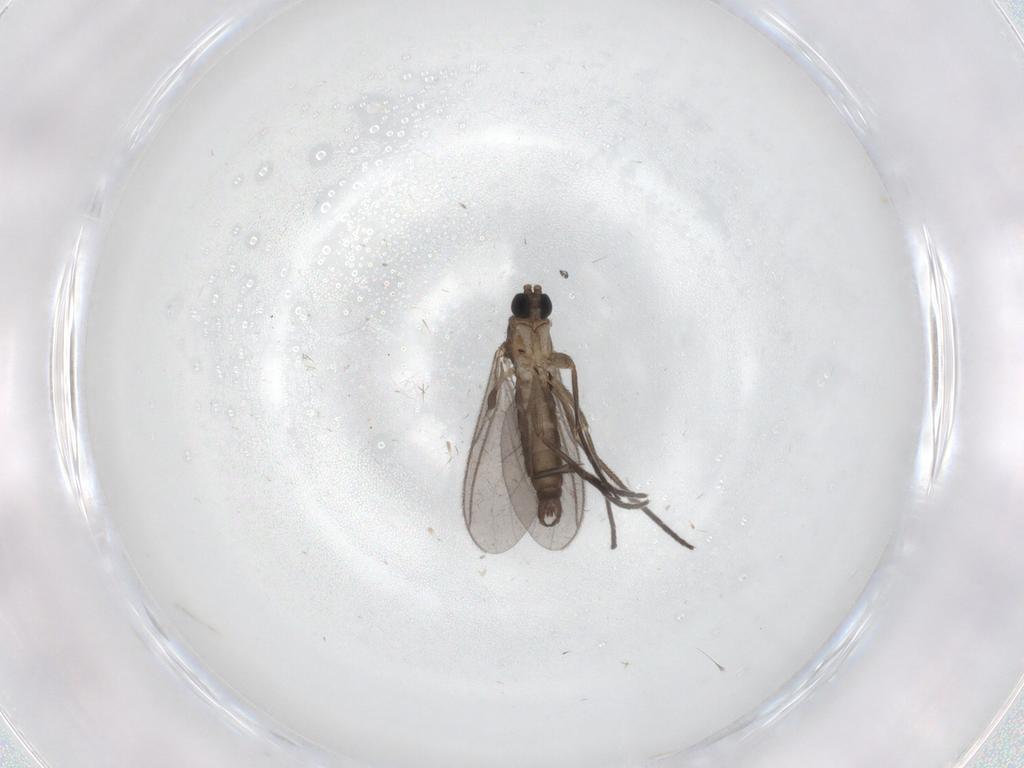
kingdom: Animalia
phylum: Arthropoda
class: Insecta
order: Diptera
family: Sciaridae
